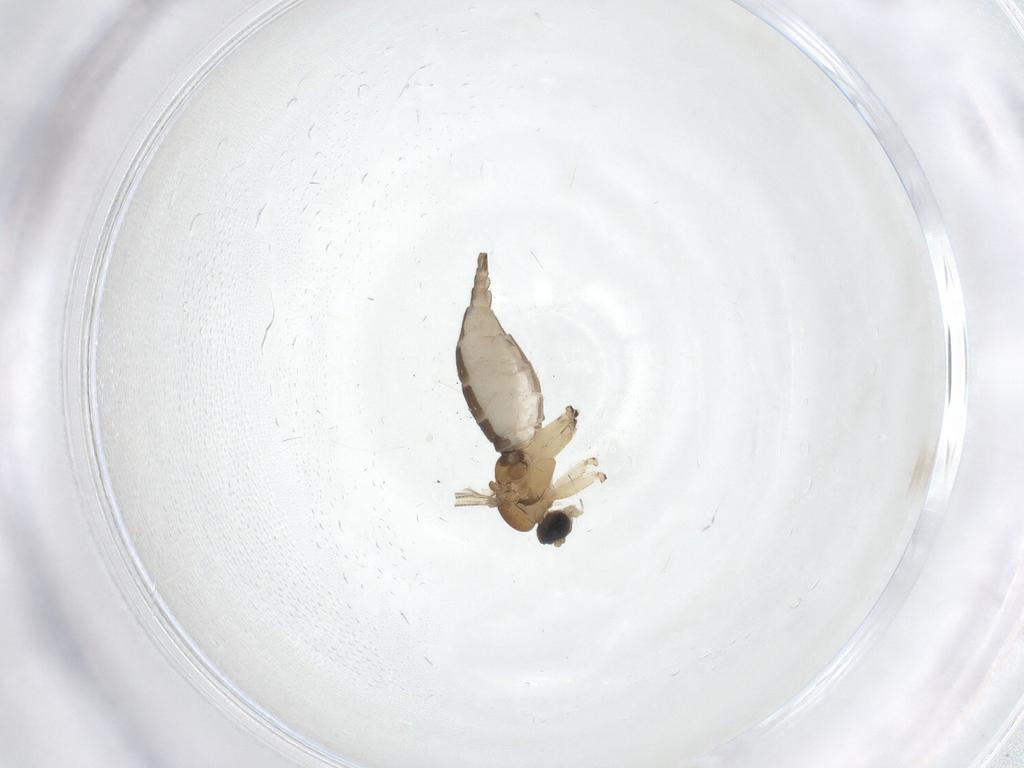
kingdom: Animalia
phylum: Arthropoda
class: Insecta
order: Diptera
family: Sciaridae
